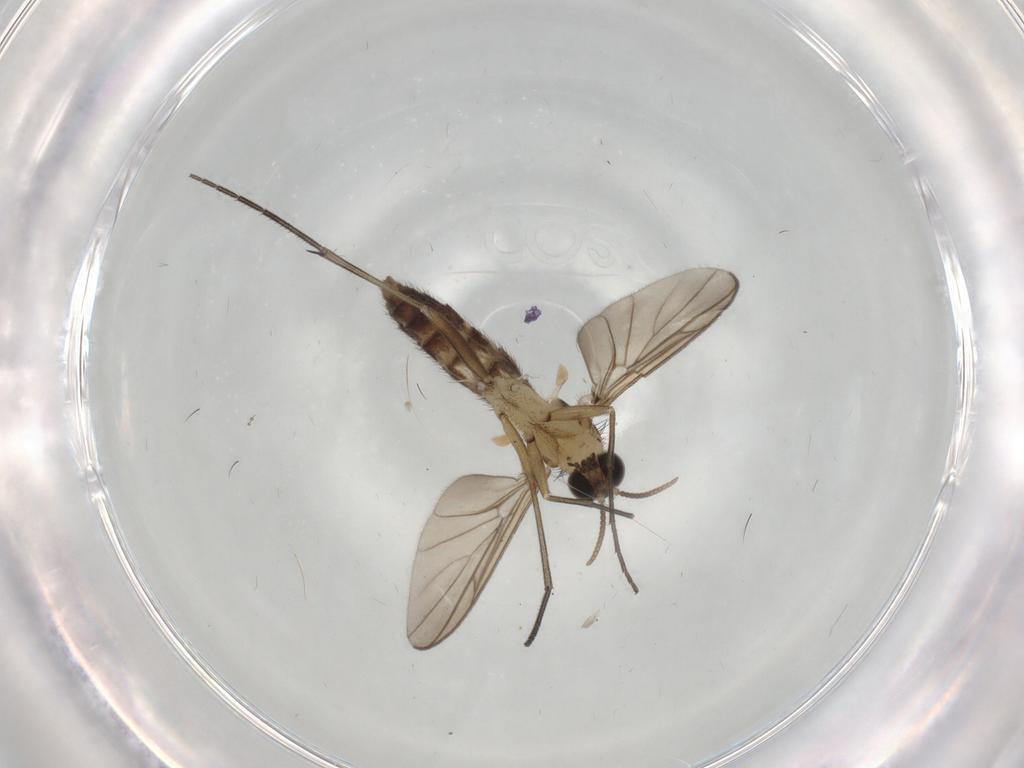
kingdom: Animalia
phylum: Arthropoda
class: Insecta
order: Diptera
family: Keroplatidae
